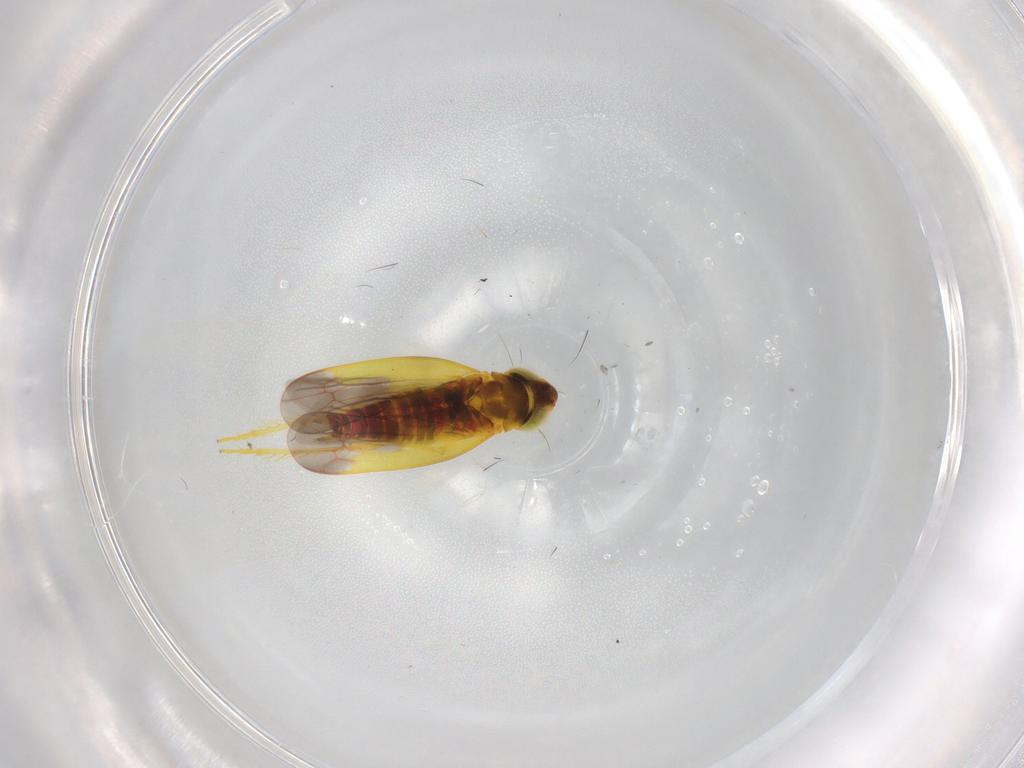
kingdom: Animalia
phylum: Arthropoda
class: Insecta
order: Hemiptera
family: Cicadellidae
